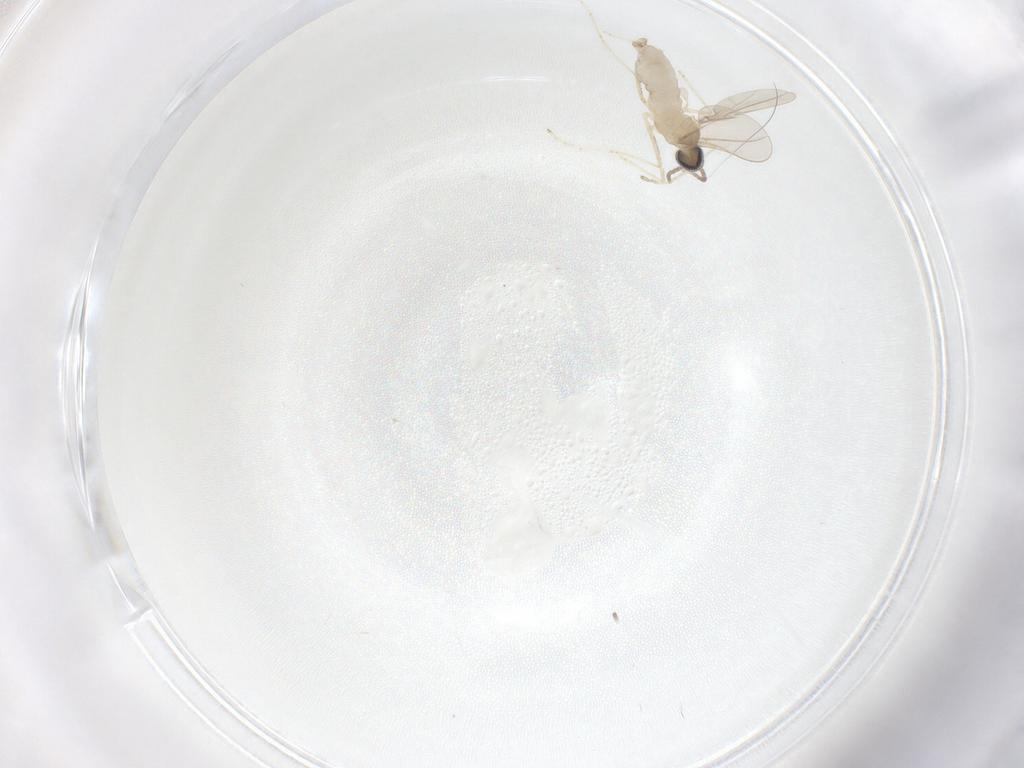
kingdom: Animalia
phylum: Arthropoda
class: Insecta
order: Diptera
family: Cecidomyiidae
